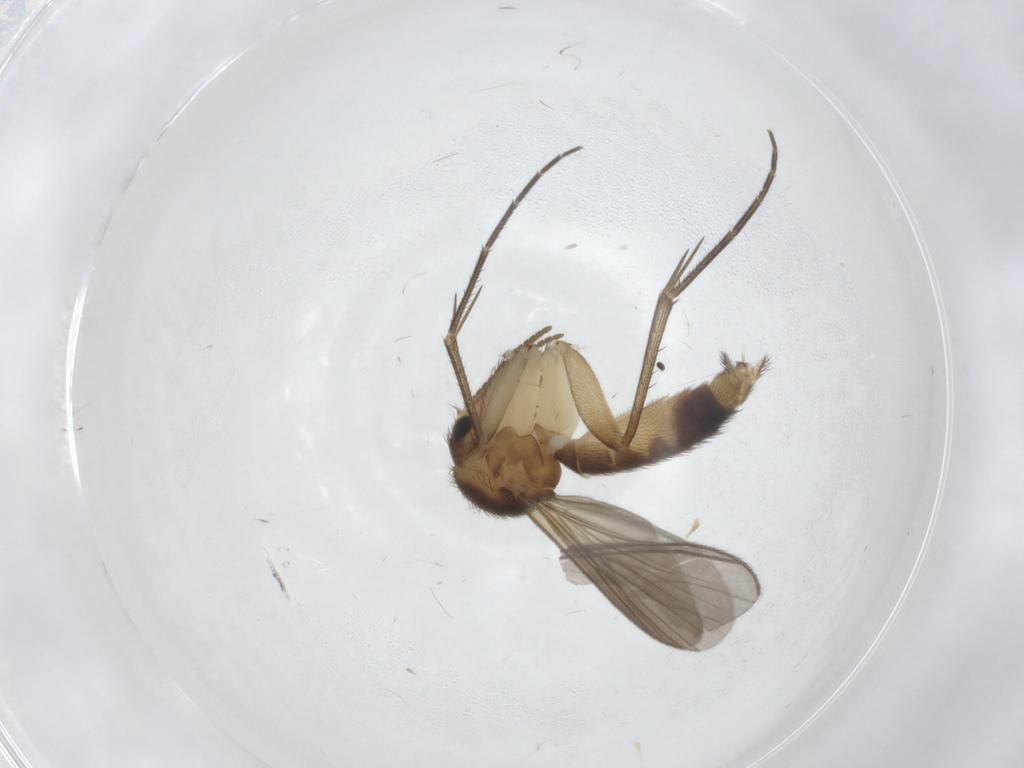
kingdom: Animalia
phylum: Arthropoda
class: Insecta
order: Diptera
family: Mycetophilidae
